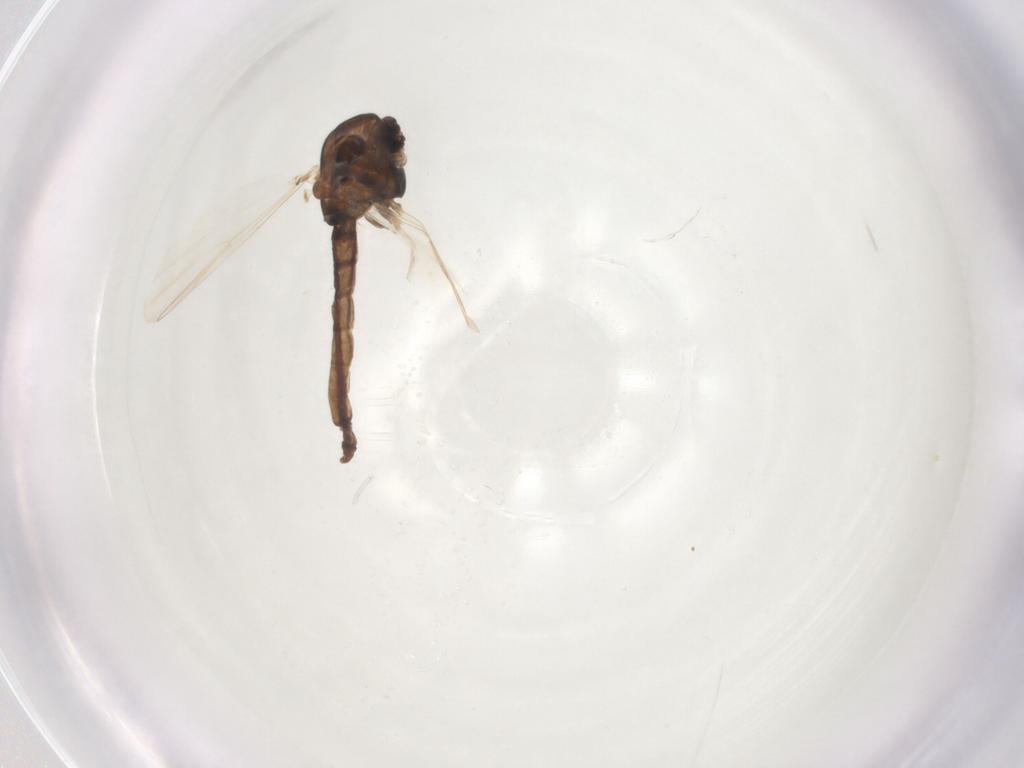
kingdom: Animalia
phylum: Arthropoda
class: Insecta
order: Diptera
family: Chironomidae
